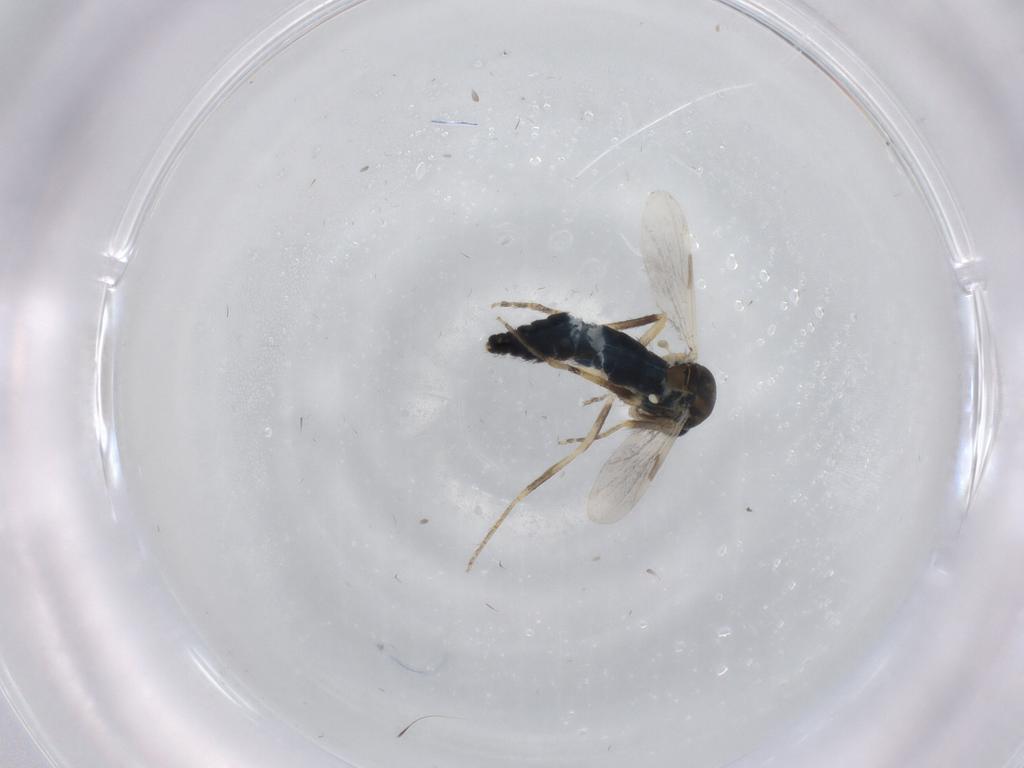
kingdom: Animalia
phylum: Arthropoda
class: Insecta
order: Diptera
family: Ceratopogonidae
